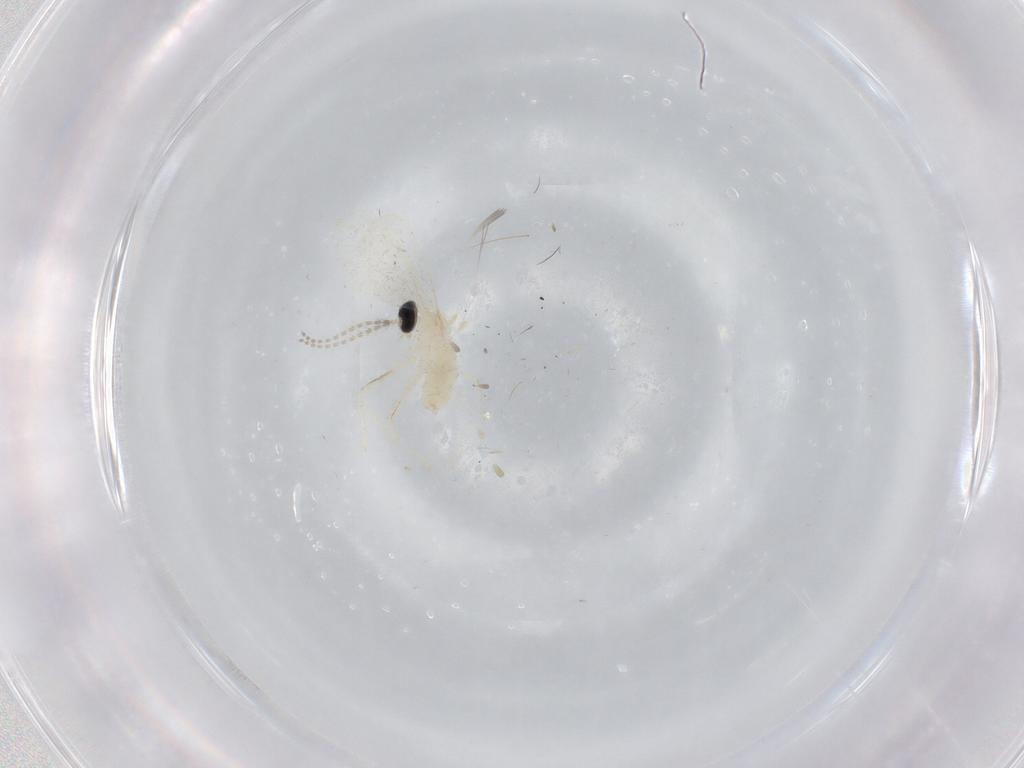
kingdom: Animalia
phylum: Arthropoda
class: Insecta
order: Diptera
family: Cecidomyiidae
